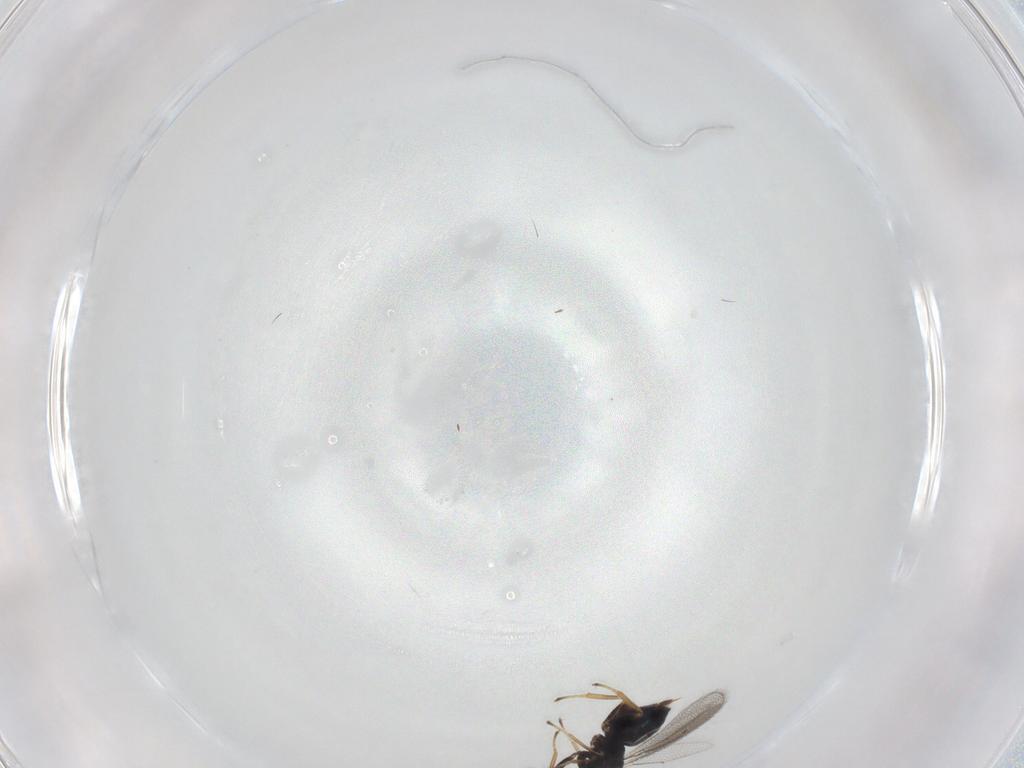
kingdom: Animalia
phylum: Arthropoda
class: Insecta
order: Hymenoptera
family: Eulophidae
